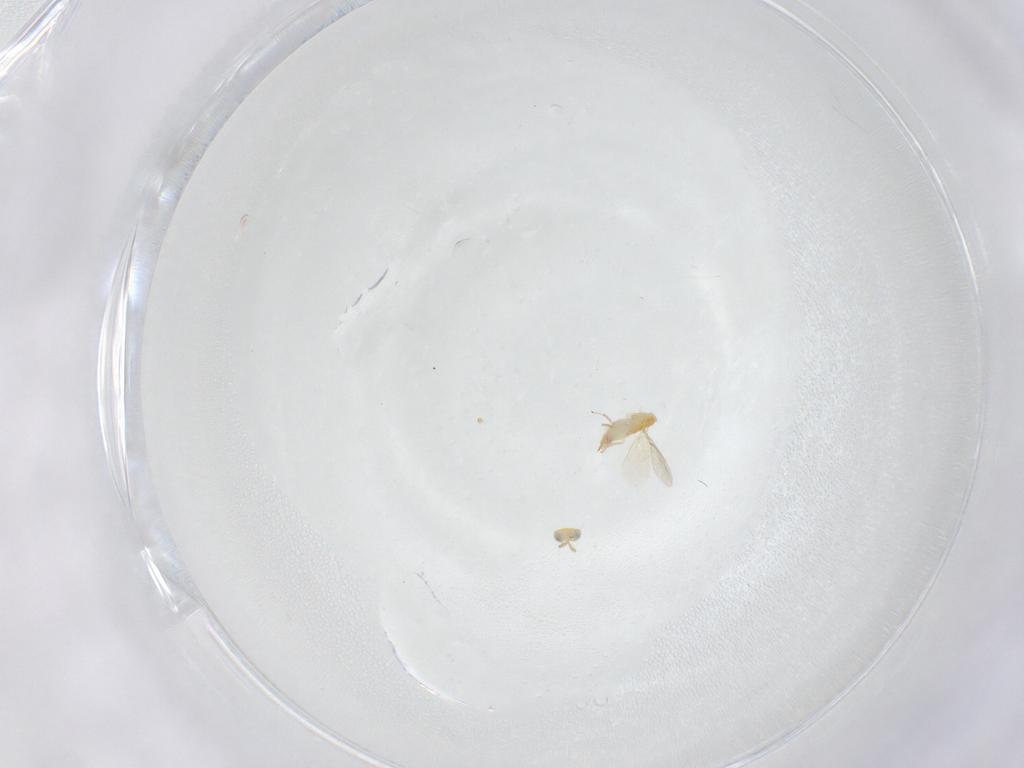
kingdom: Animalia
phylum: Arthropoda
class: Insecta
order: Hymenoptera
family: Aphelinidae
